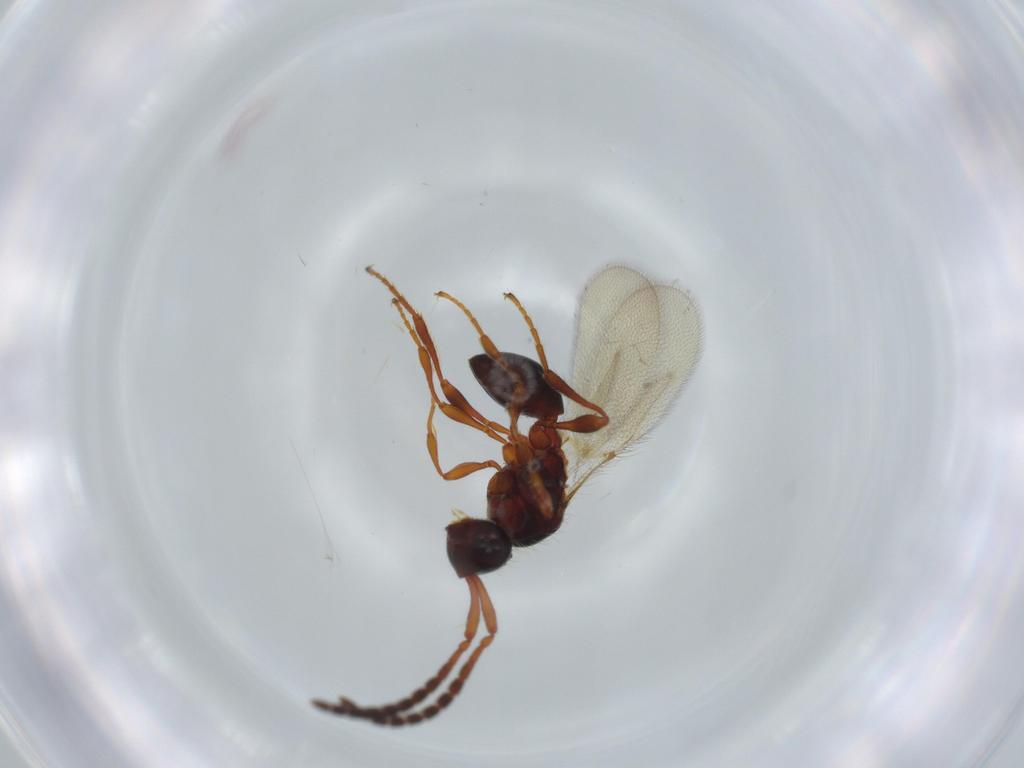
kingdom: Animalia
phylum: Arthropoda
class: Insecta
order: Hymenoptera
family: Diapriidae
